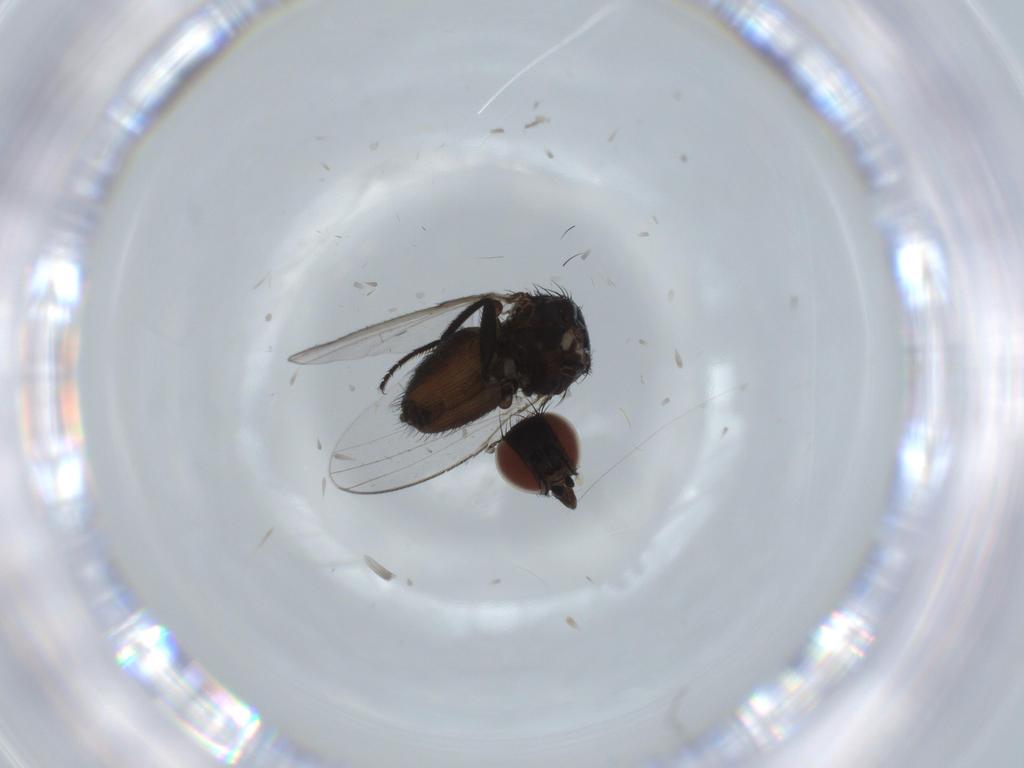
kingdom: Animalia
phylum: Arthropoda
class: Insecta
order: Diptera
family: Milichiidae
